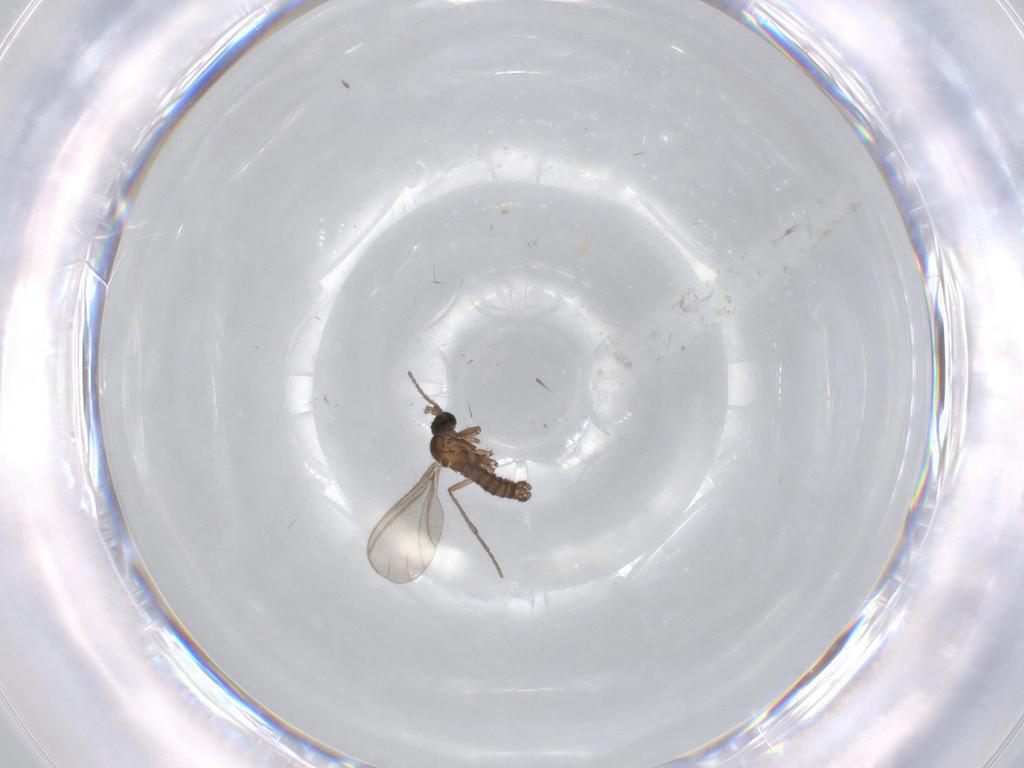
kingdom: Animalia
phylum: Arthropoda
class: Insecta
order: Diptera
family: Sciaridae
